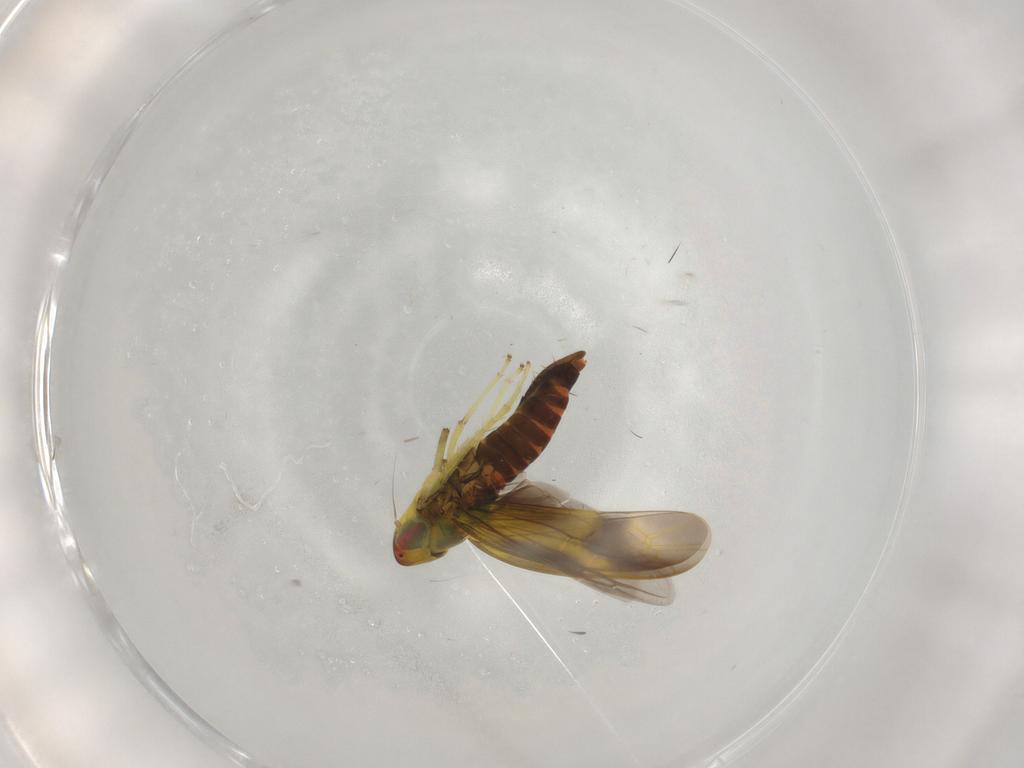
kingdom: Animalia
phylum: Arthropoda
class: Insecta
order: Hemiptera
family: Cicadellidae
